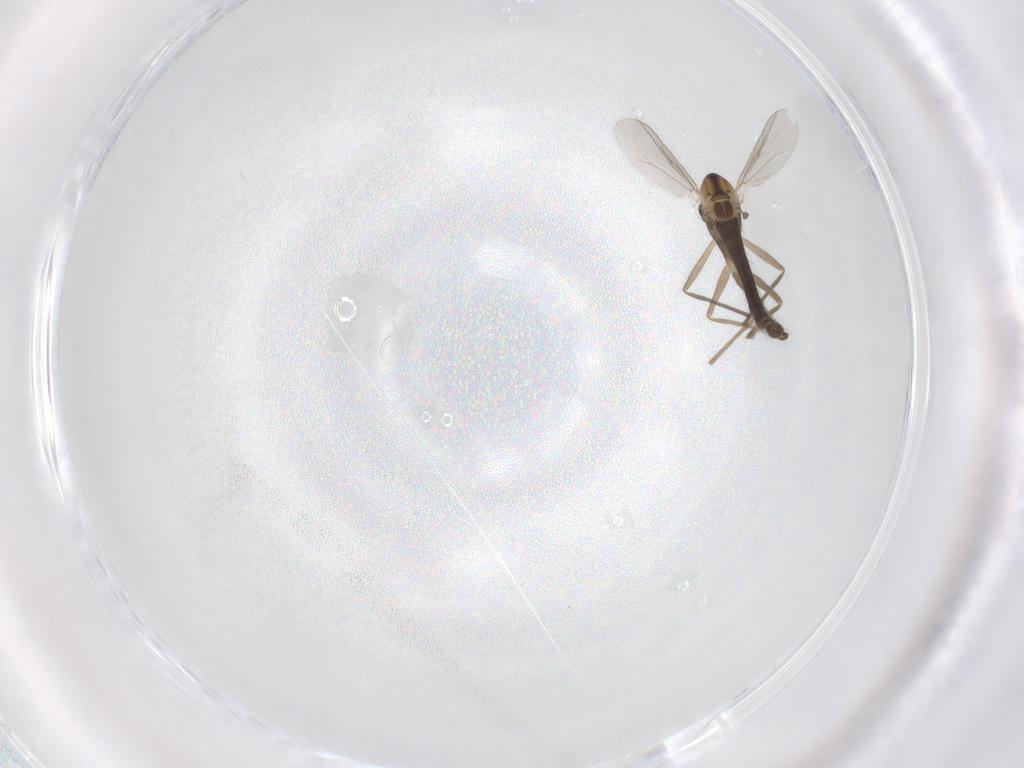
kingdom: Animalia
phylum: Arthropoda
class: Insecta
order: Diptera
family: Chironomidae
